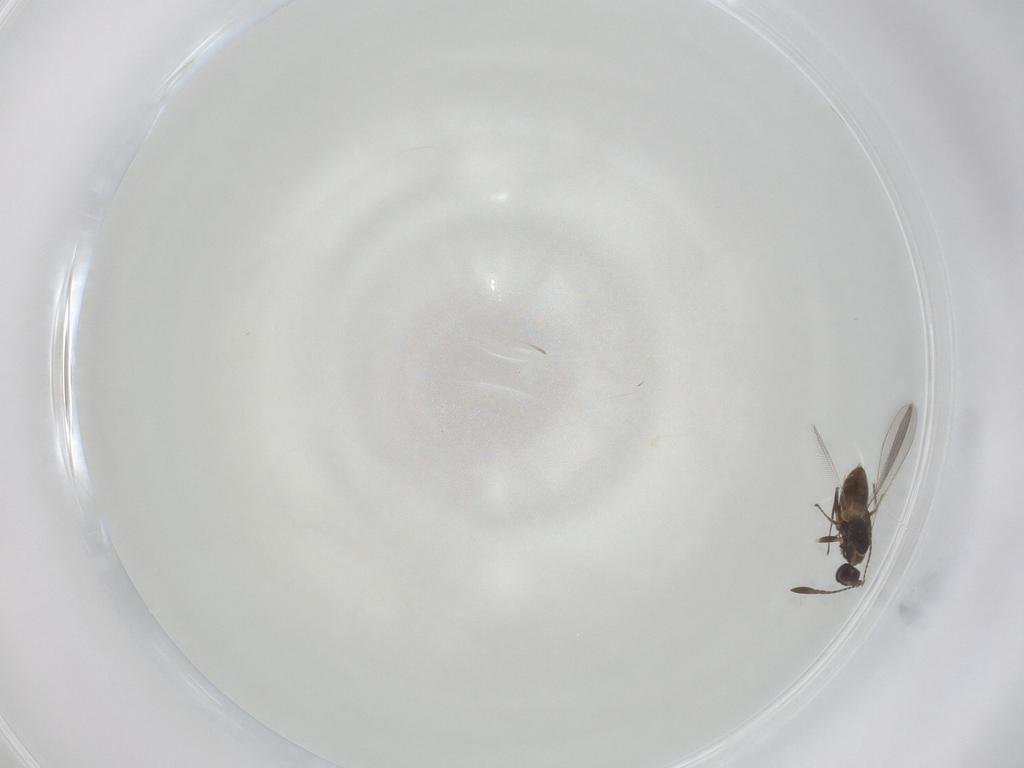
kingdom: Animalia
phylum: Arthropoda
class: Insecta
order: Hymenoptera
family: Mymaridae
